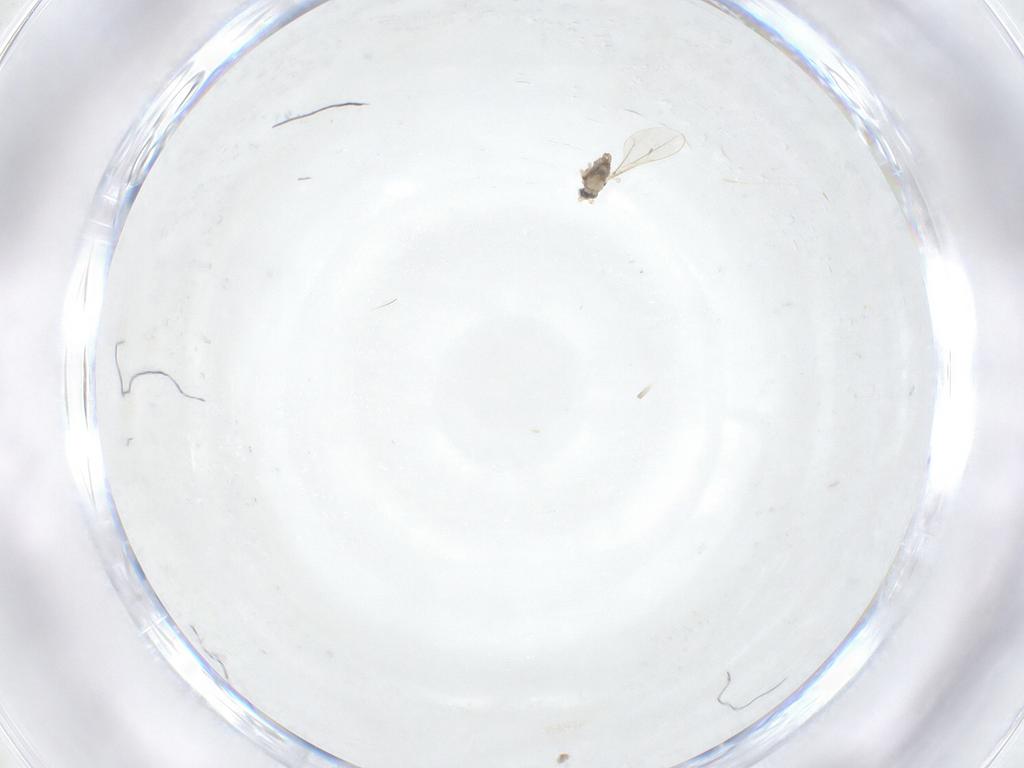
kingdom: Animalia
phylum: Arthropoda
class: Insecta
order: Diptera
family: Cecidomyiidae
